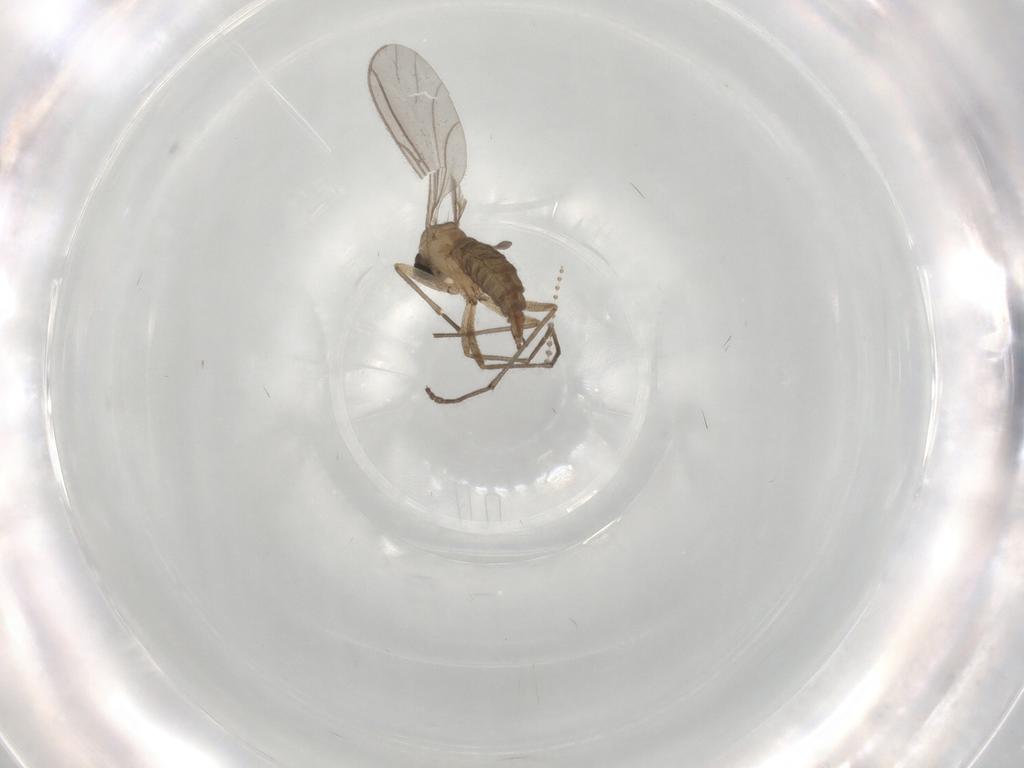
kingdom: Animalia
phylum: Arthropoda
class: Insecta
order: Diptera
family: Sciaridae
